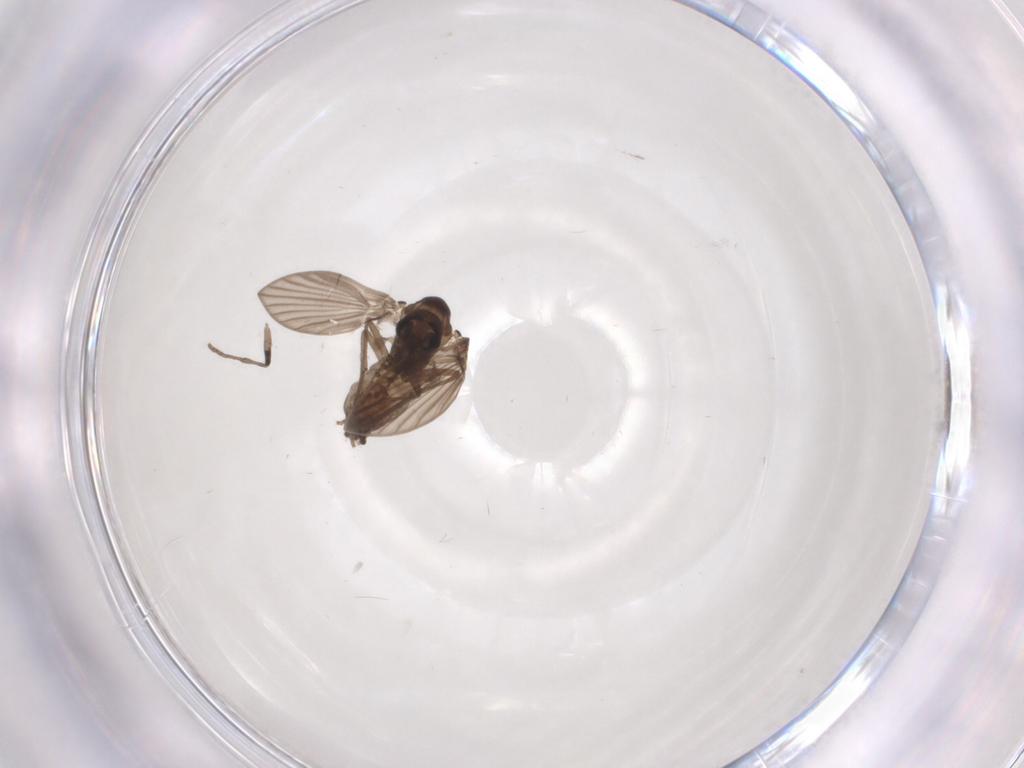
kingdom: Animalia
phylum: Arthropoda
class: Insecta
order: Diptera
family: Psychodidae
